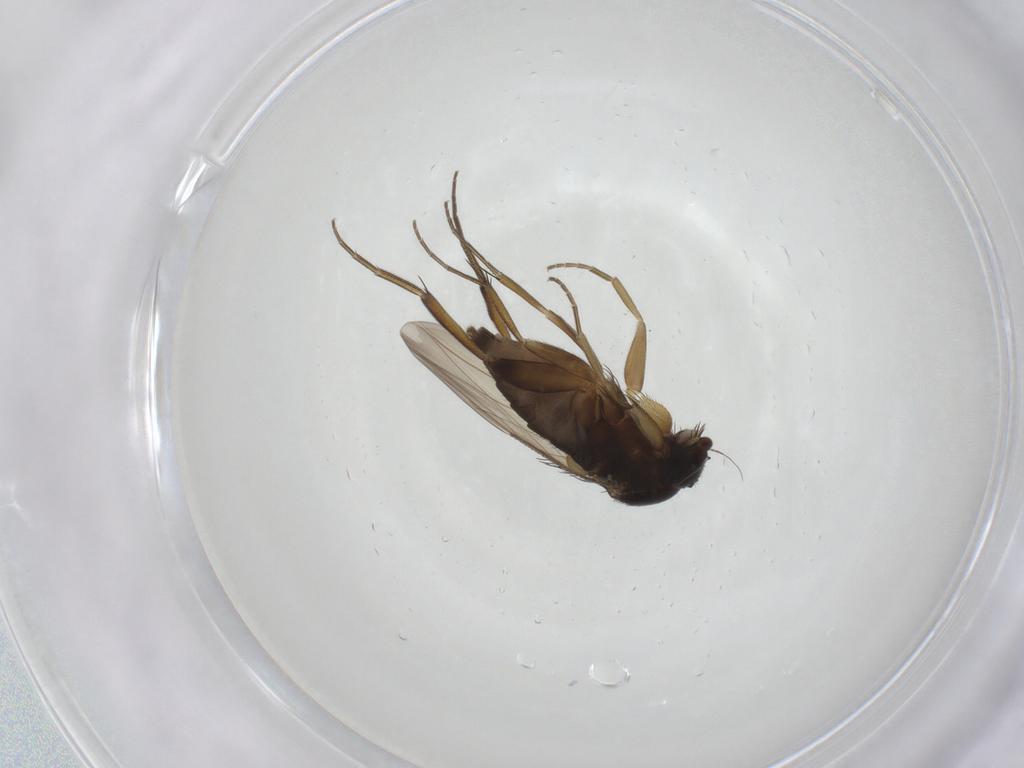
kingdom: Animalia
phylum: Arthropoda
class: Insecta
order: Diptera
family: Phoridae
